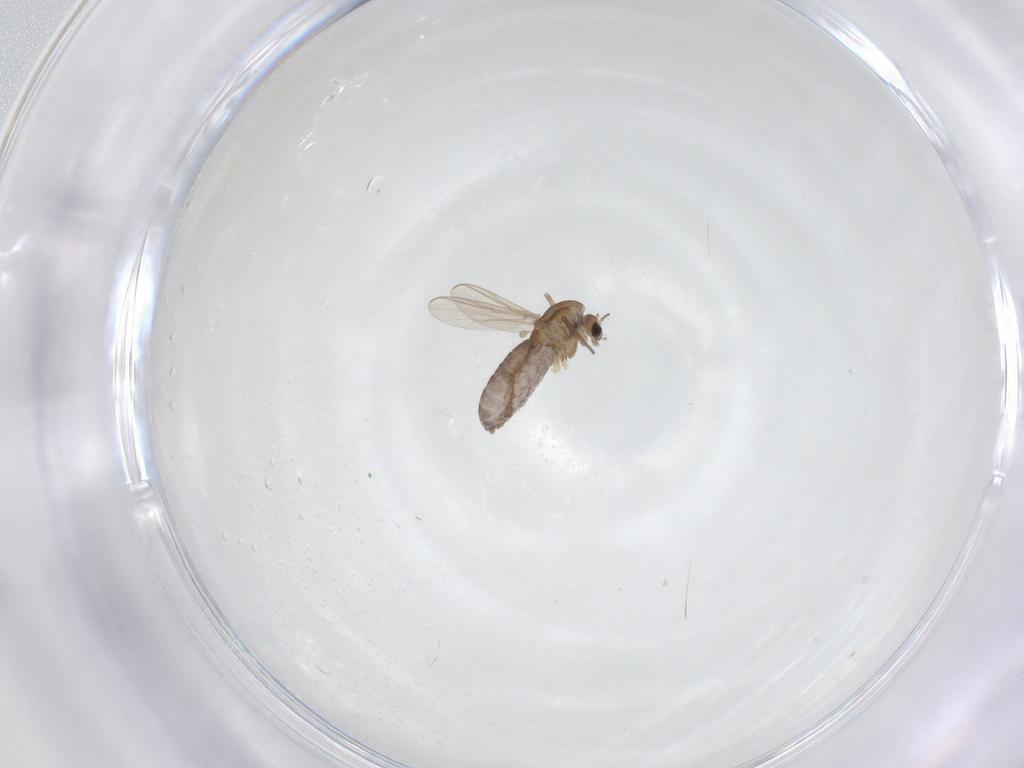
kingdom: Animalia
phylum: Arthropoda
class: Insecta
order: Diptera
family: Chironomidae
